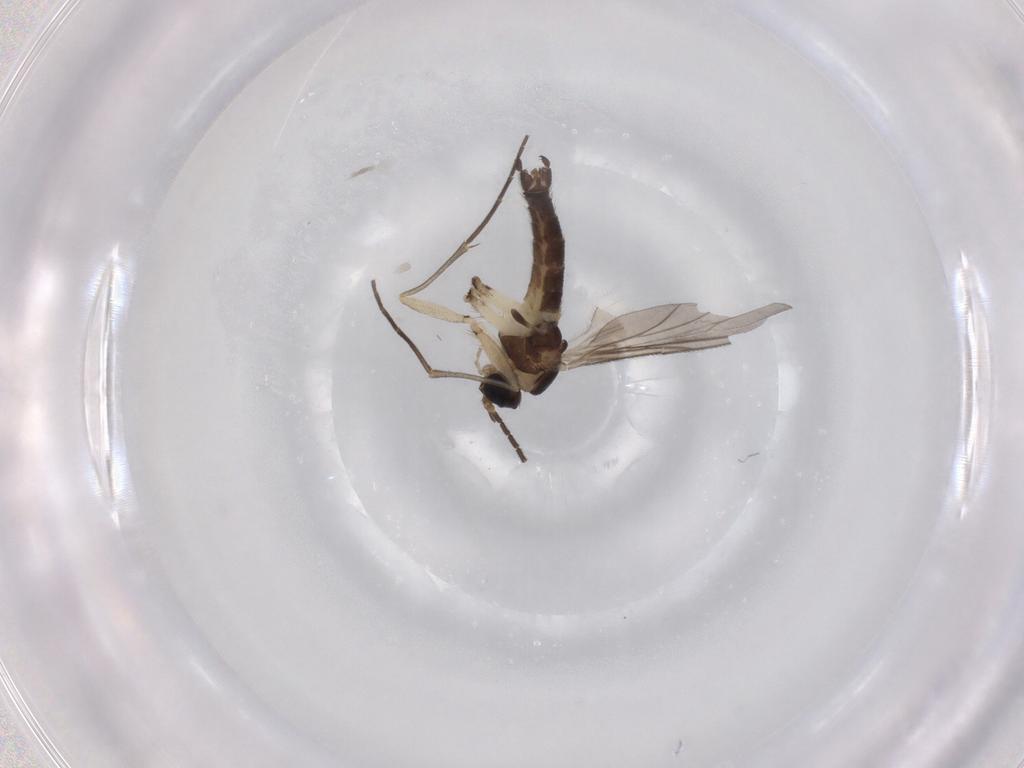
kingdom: Animalia
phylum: Arthropoda
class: Insecta
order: Diptera
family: Sciaridae
